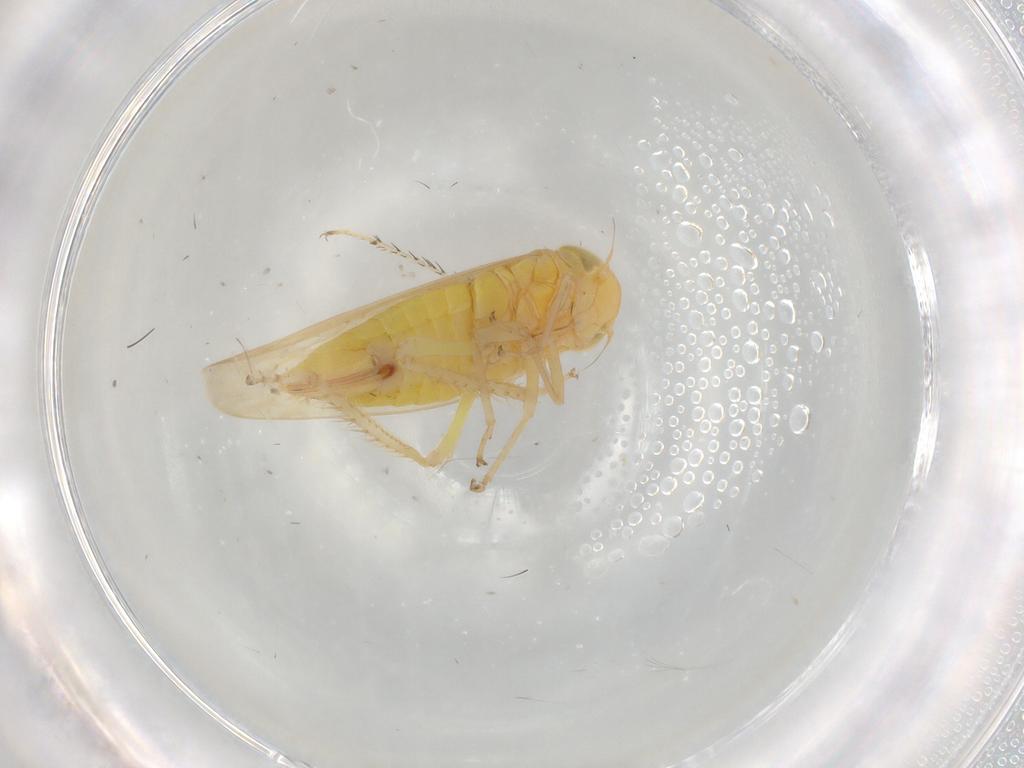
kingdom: Animalia
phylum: Arthropoda
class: Insecta
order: Hemiptera
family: Cicadellidae
